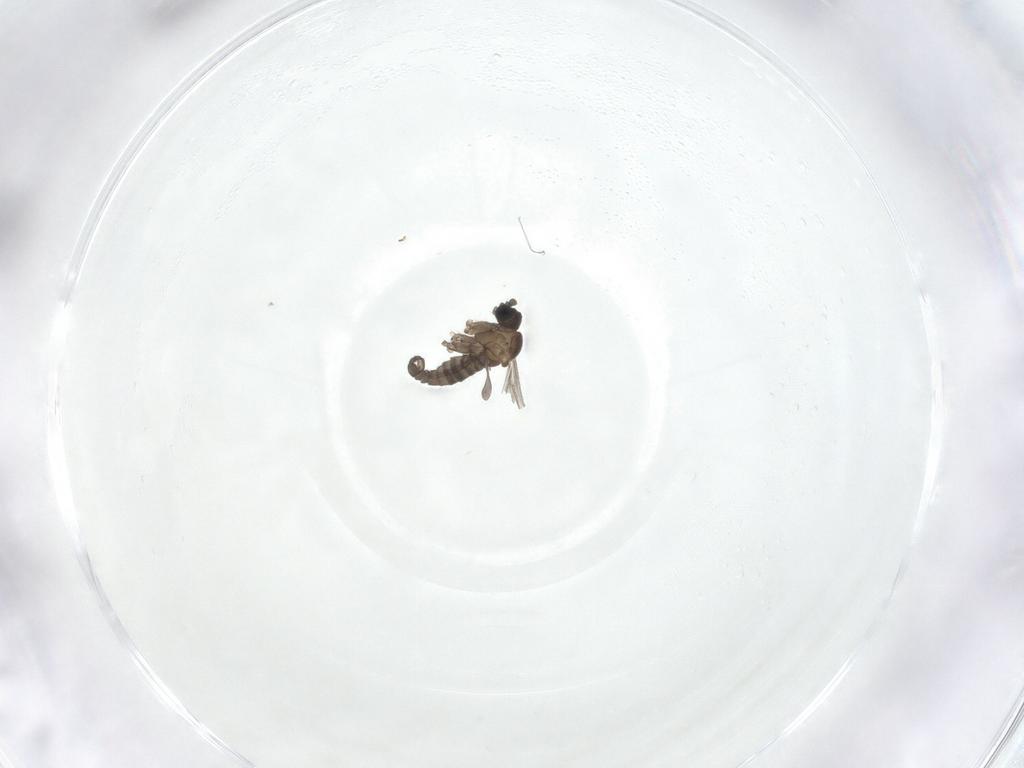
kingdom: Animalia
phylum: Arthropoda
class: Insecta
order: Diptera
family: Sciaridae
